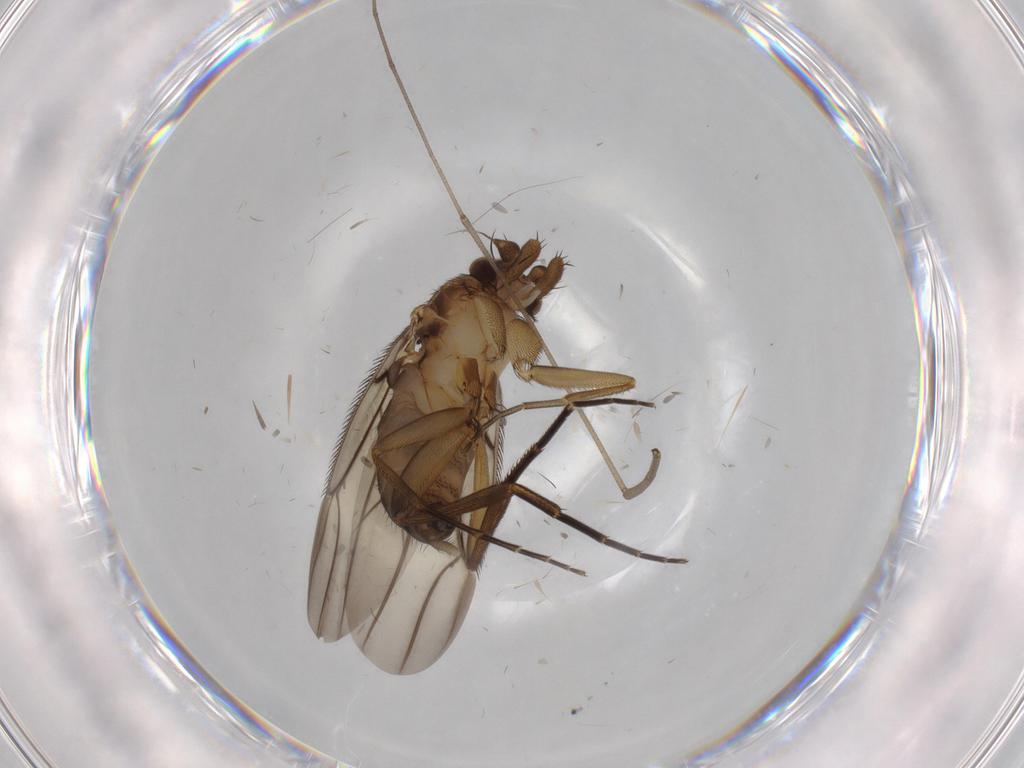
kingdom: Animalia
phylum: Arthropoda
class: Insecta
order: Diptera
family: Phoridae
